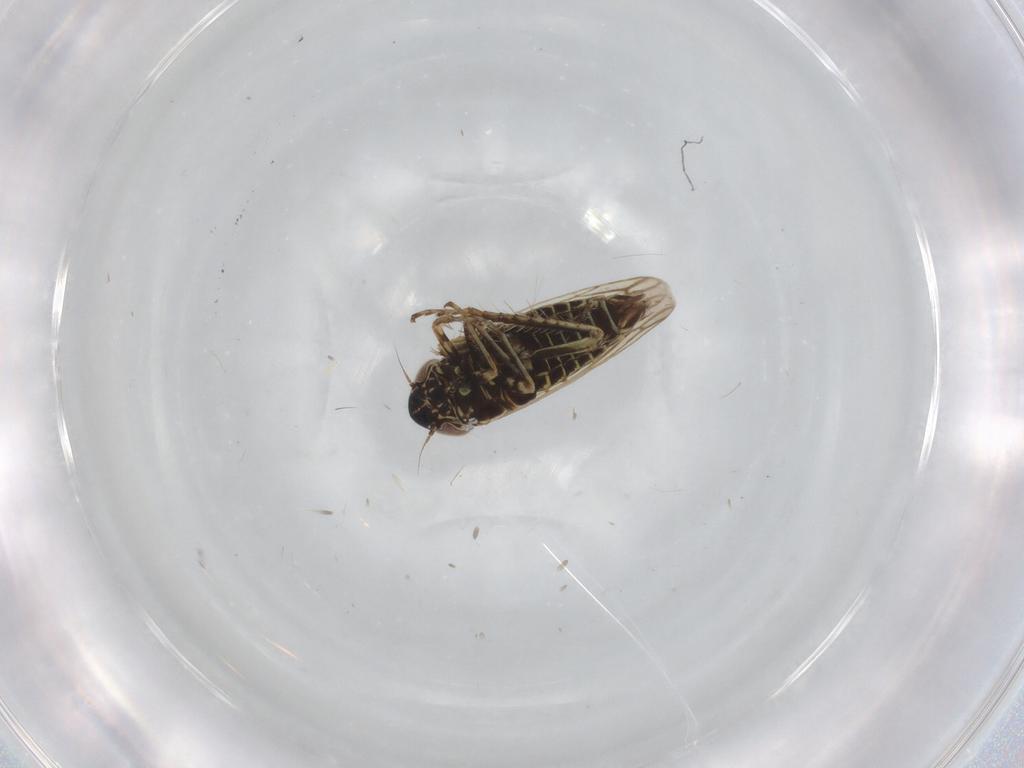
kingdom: Animalia
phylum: Arthropoda
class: Insecta
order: Hemiptera
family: Cicadellidae
